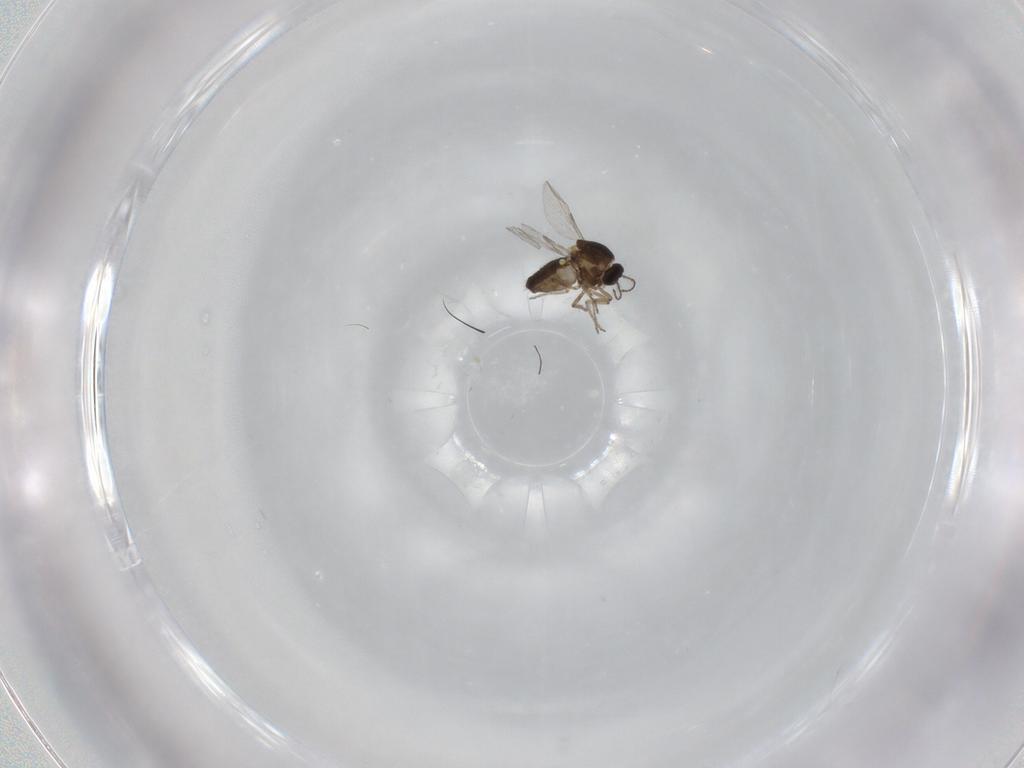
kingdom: Animalia
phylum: Arthropoda
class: Insecta
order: Diptera
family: Ceratopogonidae
